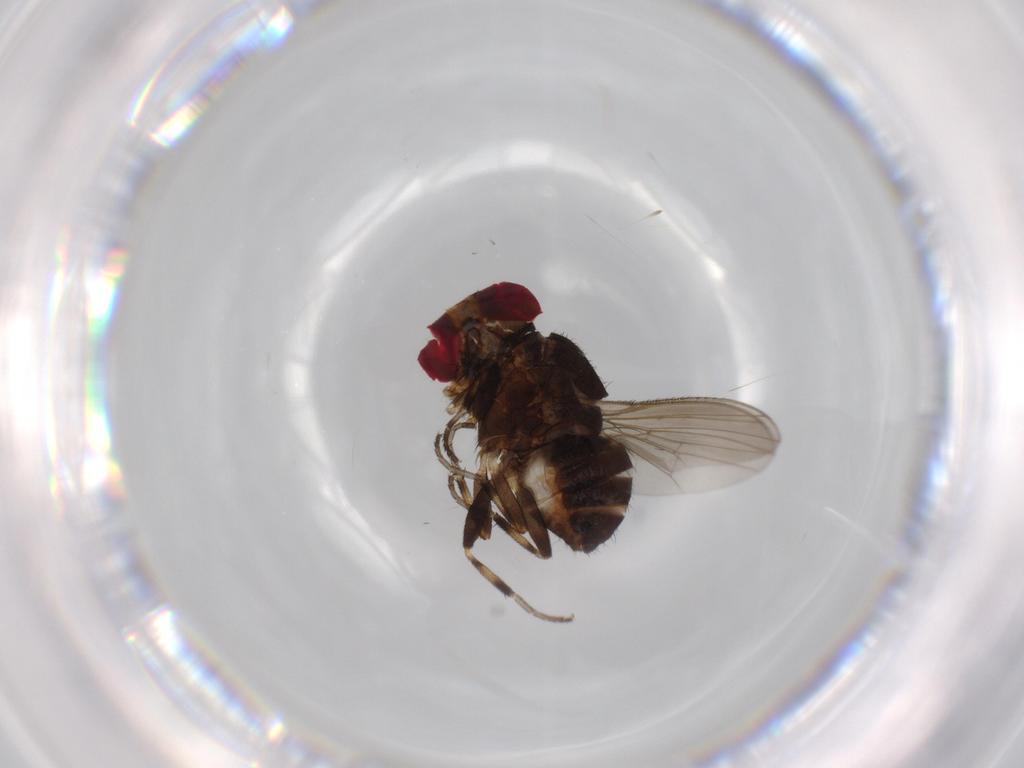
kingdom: Animalia
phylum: Arthropoda
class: Insecta
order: Diptera
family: Heleomyzidae
